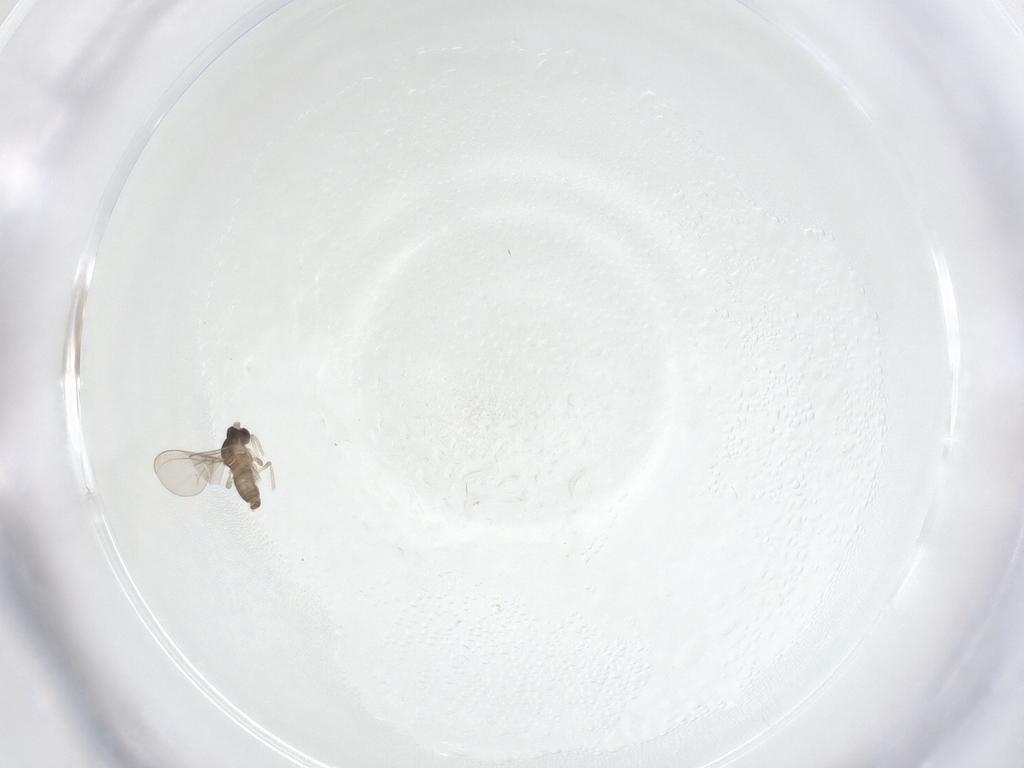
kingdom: Animalia
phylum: Arthropoda
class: Insecta
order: Diptera
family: Cecidomyiidae
